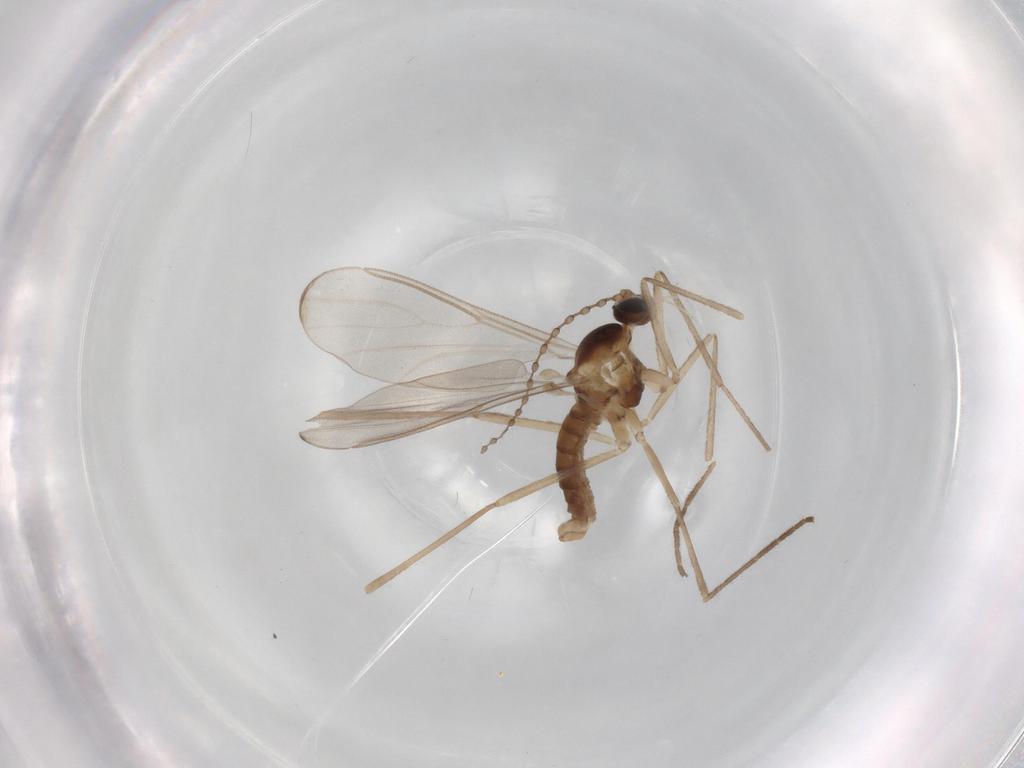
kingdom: Animalia
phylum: Arthropoda
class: Insecta
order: Diptera
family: Cecidomyiidae
